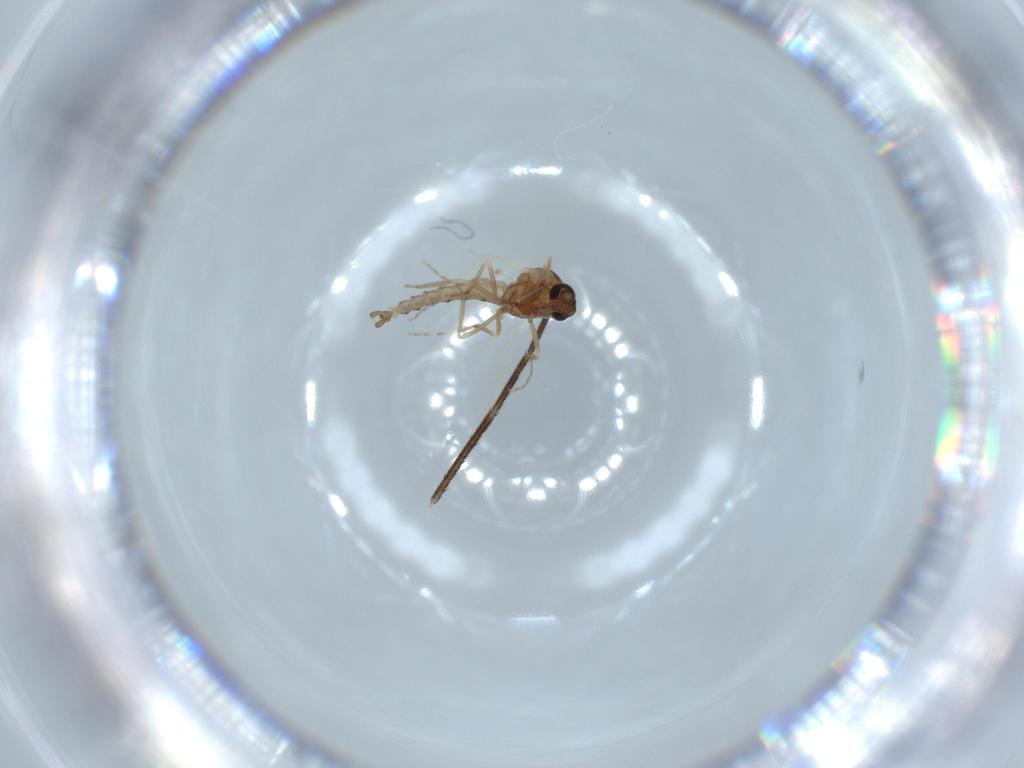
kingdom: Animalia
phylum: Arthropoda
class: Insecta
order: Diptera
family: Ceratopogonidae
